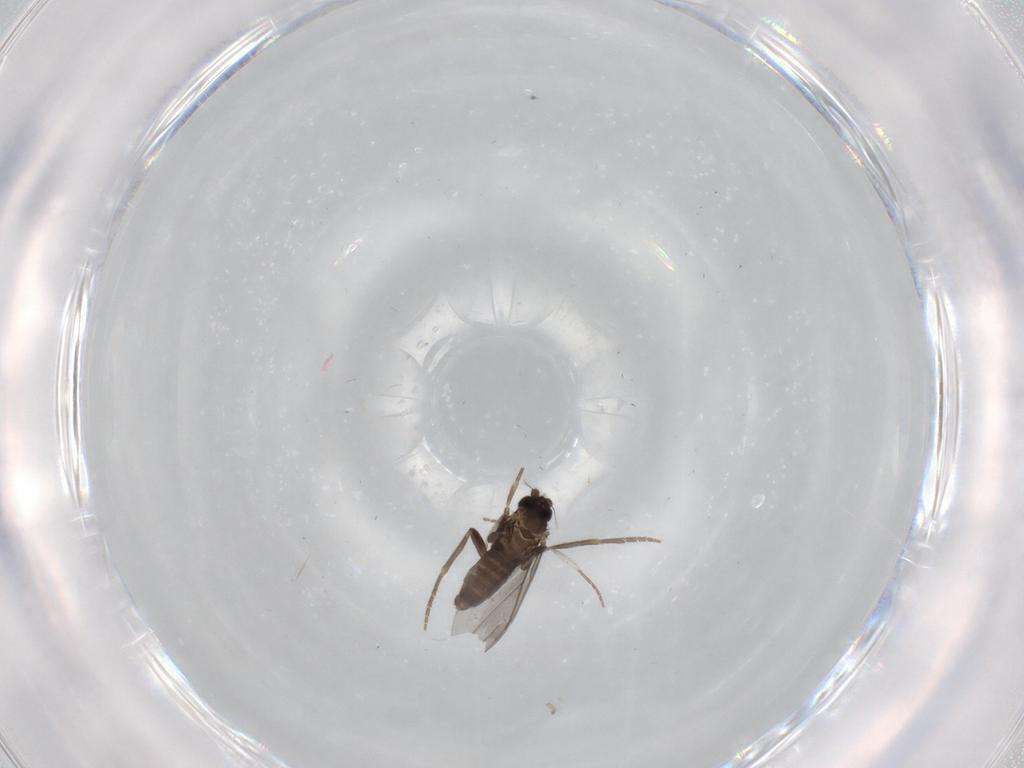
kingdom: Animalia
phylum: Arthropoda
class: Insecta
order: Diptera
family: Phoridae
